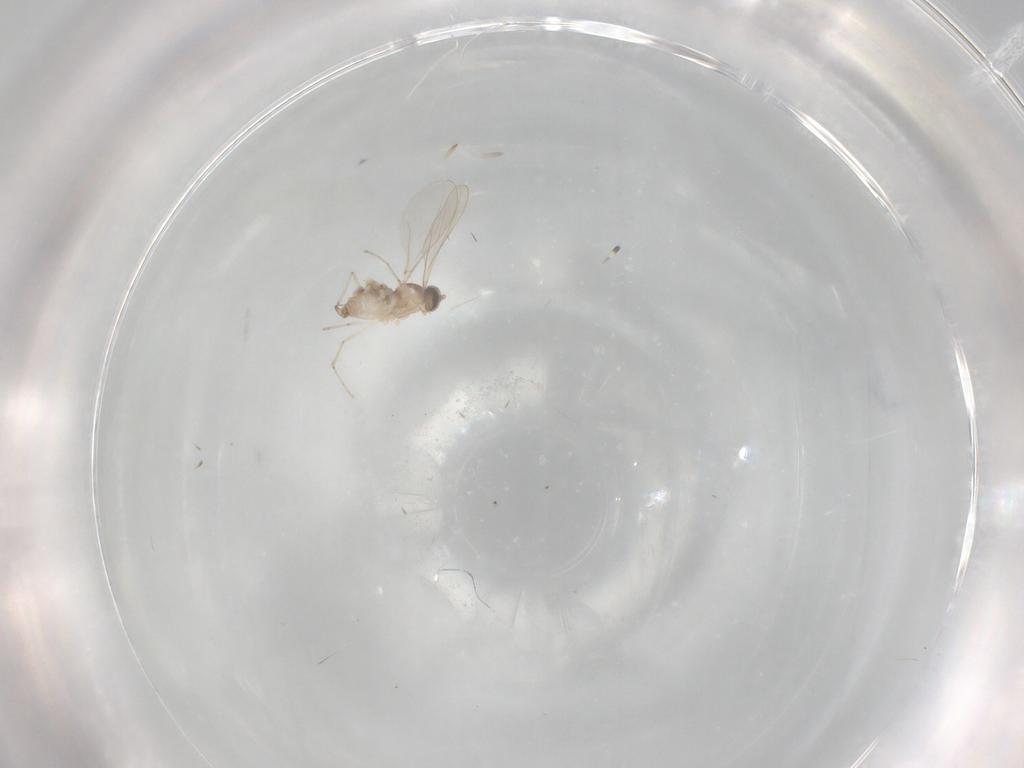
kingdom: Animalia
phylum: Arthropoda
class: Insecta
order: Diptera
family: Cecidomyiidae
